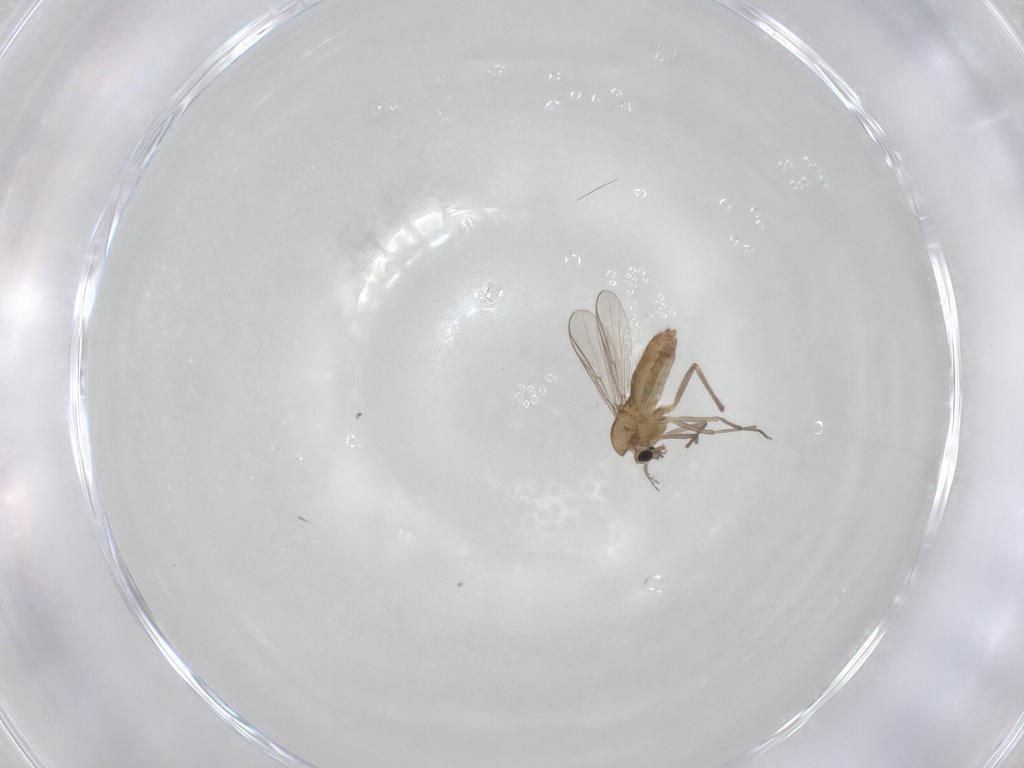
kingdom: Animalia
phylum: Arthropoda
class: Insecta
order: Diptera
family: Chironomidae
